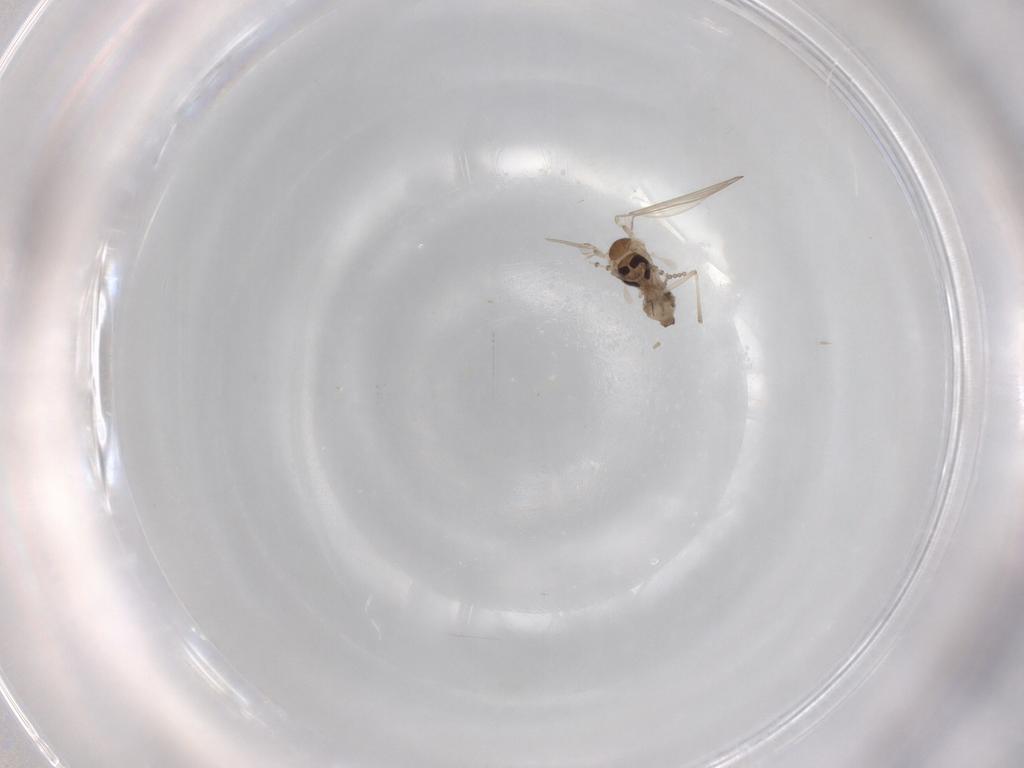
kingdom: Animalia
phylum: Arthropoda
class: Insecta
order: Diptera
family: Psychodidae
